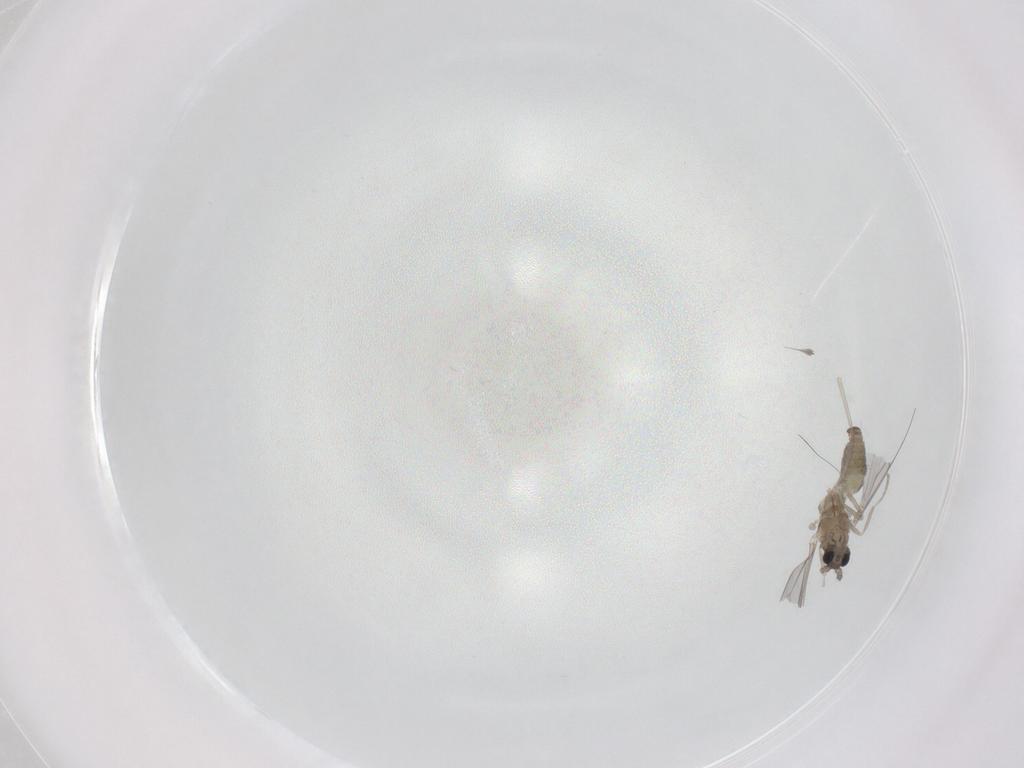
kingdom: Animalia
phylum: Arthropoda
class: Insecta
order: Diptera
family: Cecidomyiidae
